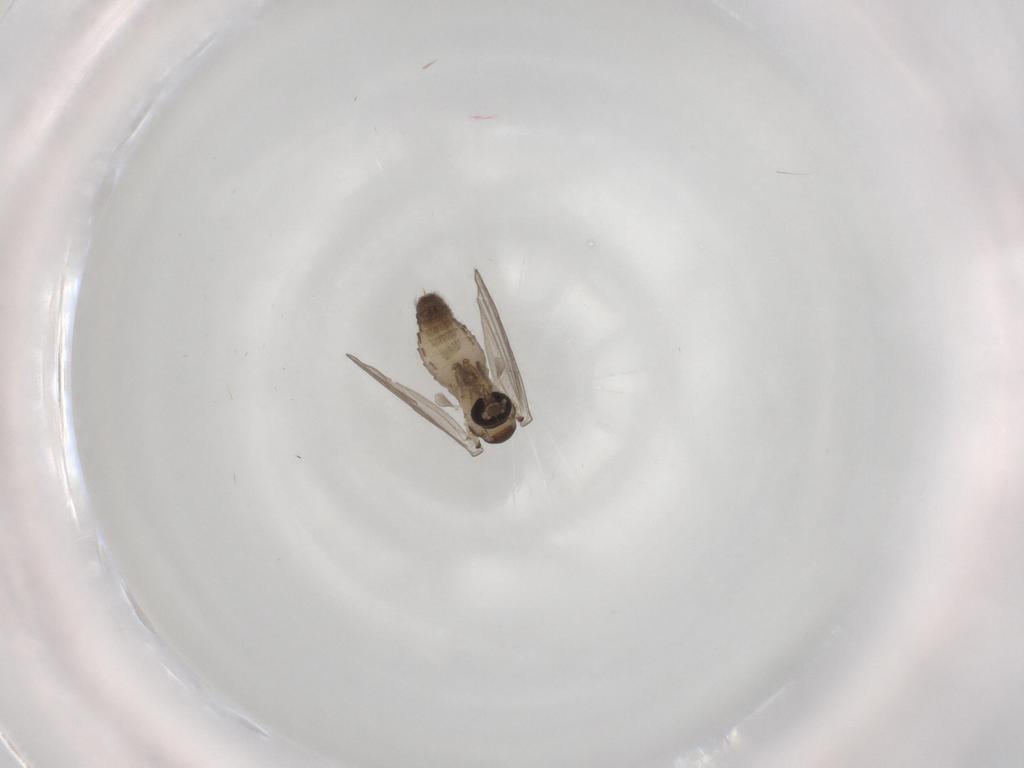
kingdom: Animalia
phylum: Arthropoda
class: Insecta
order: Diptera
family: Psychodidae
